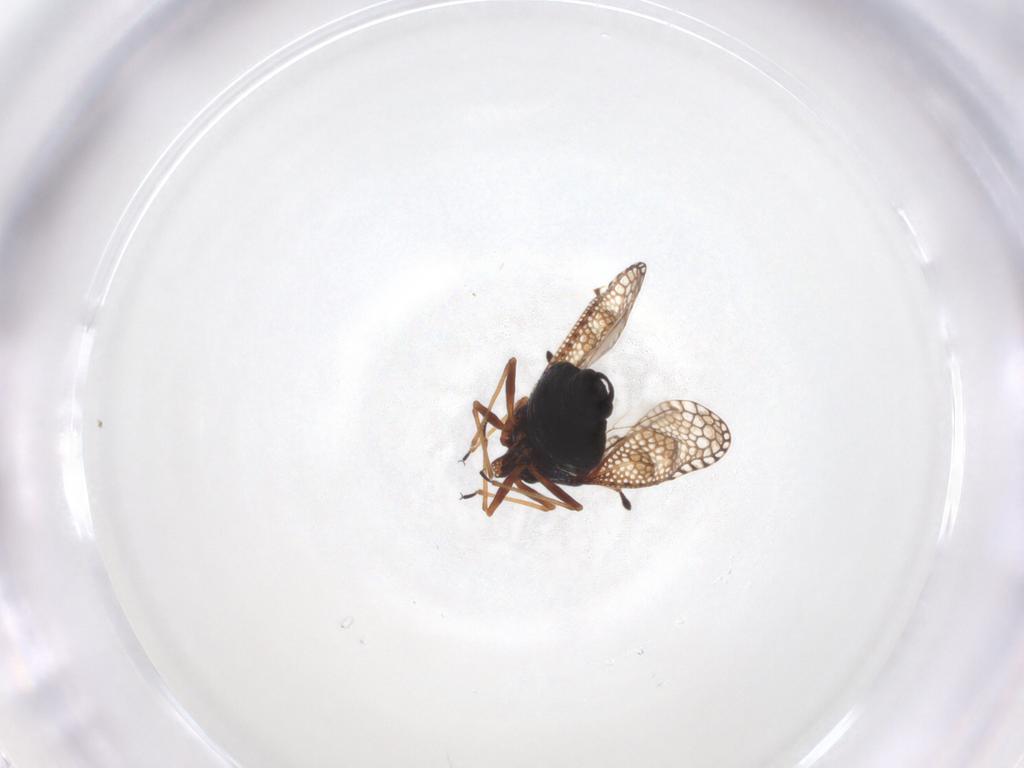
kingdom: Animalia
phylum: Arthropoda
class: Insecta
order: Hemiptera
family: Tingidae
